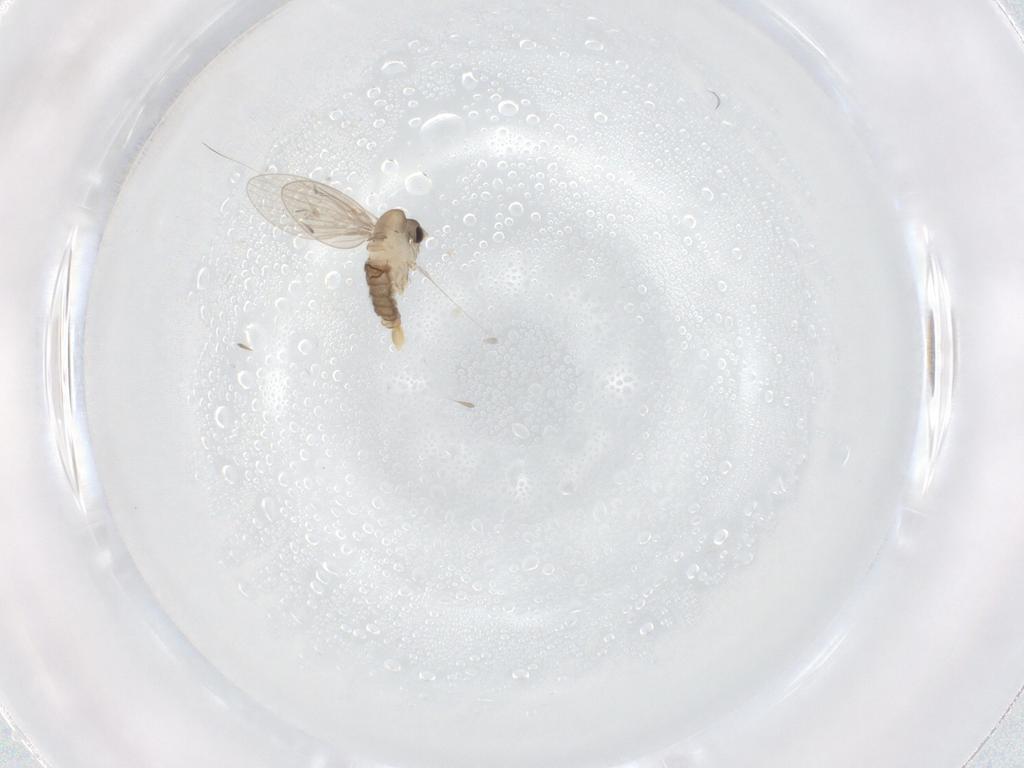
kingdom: Animalia
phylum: Arthropoda
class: Insecta
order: Diptera
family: Psychodidae
